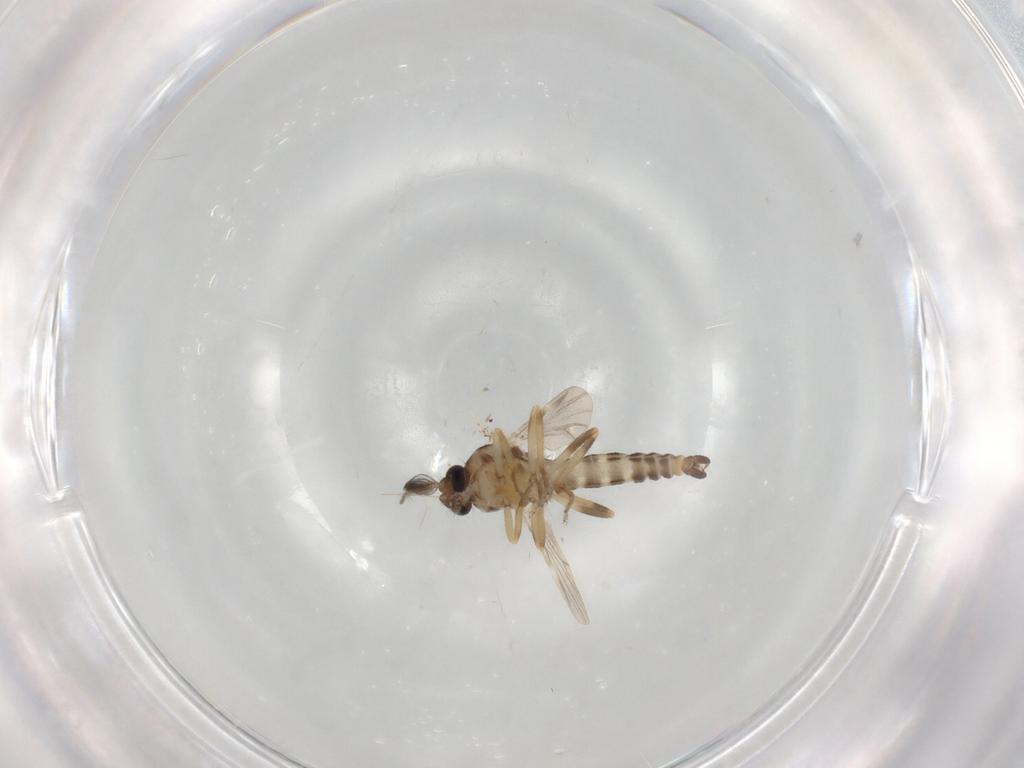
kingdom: Animalia
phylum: Arthropoda
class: Insecta
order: Diptera
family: Ceratopogonidae
